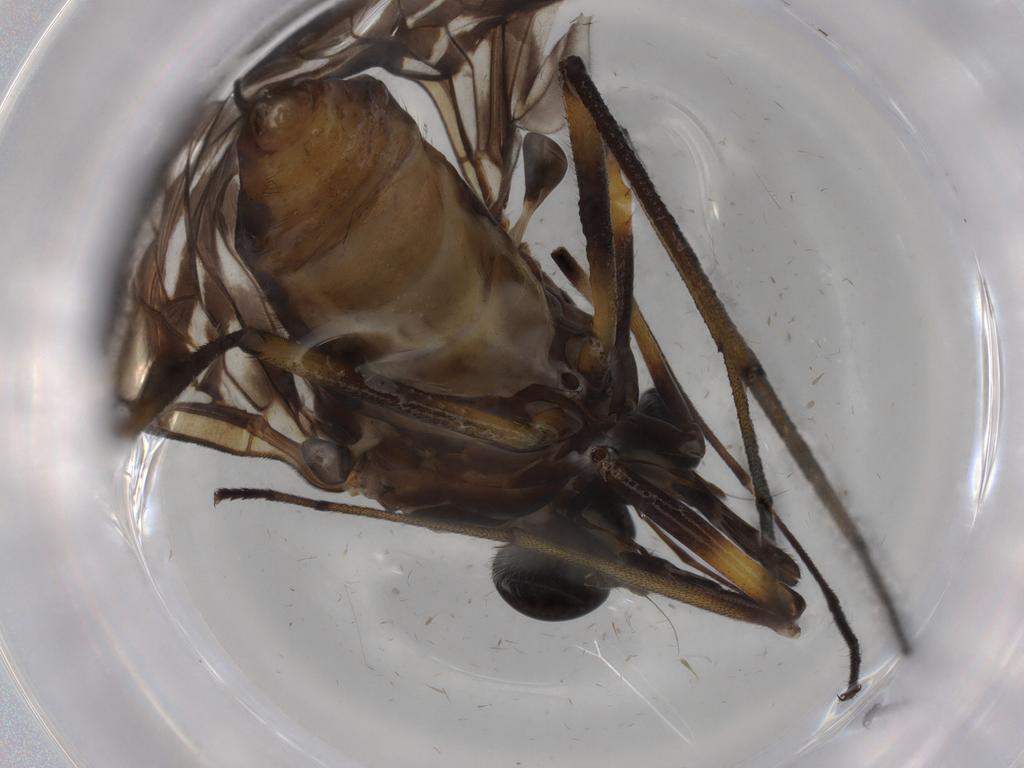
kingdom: Animalia
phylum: Arthropoda
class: Insecta
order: Diptera
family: Cecidomyiidae
